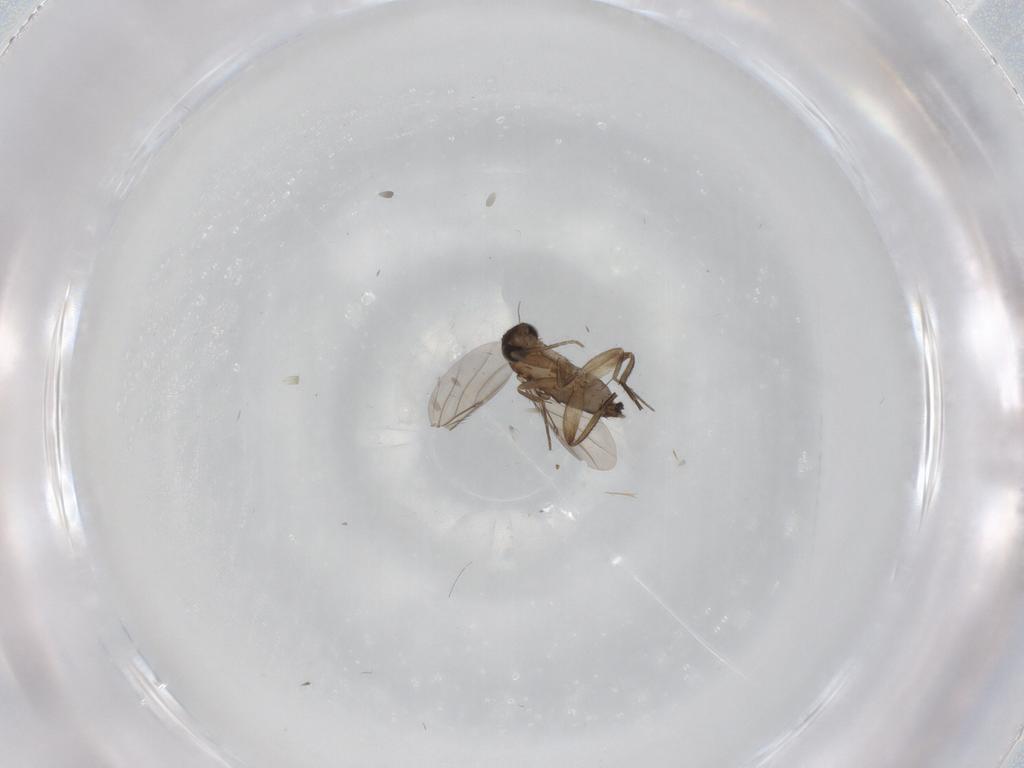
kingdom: Animalia
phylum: Arthropoda
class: Insecta
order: Diptera
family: Phoridae
